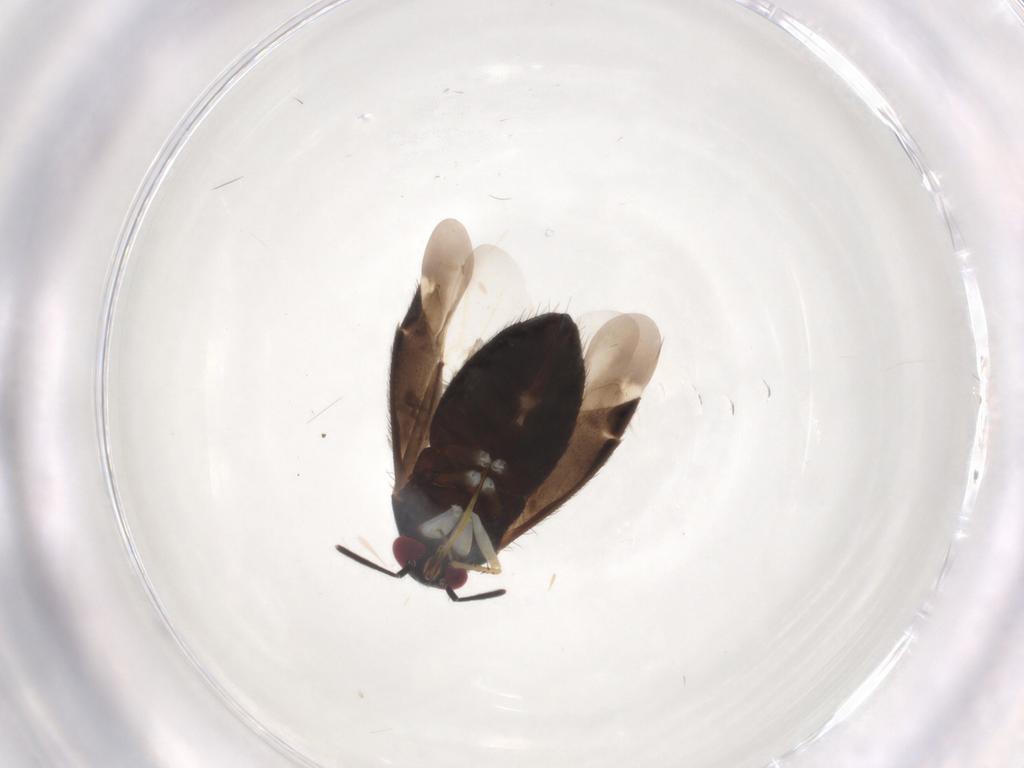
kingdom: Animalia
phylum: Arthropoda
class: Insecta
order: Hemiptera
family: Miridae
